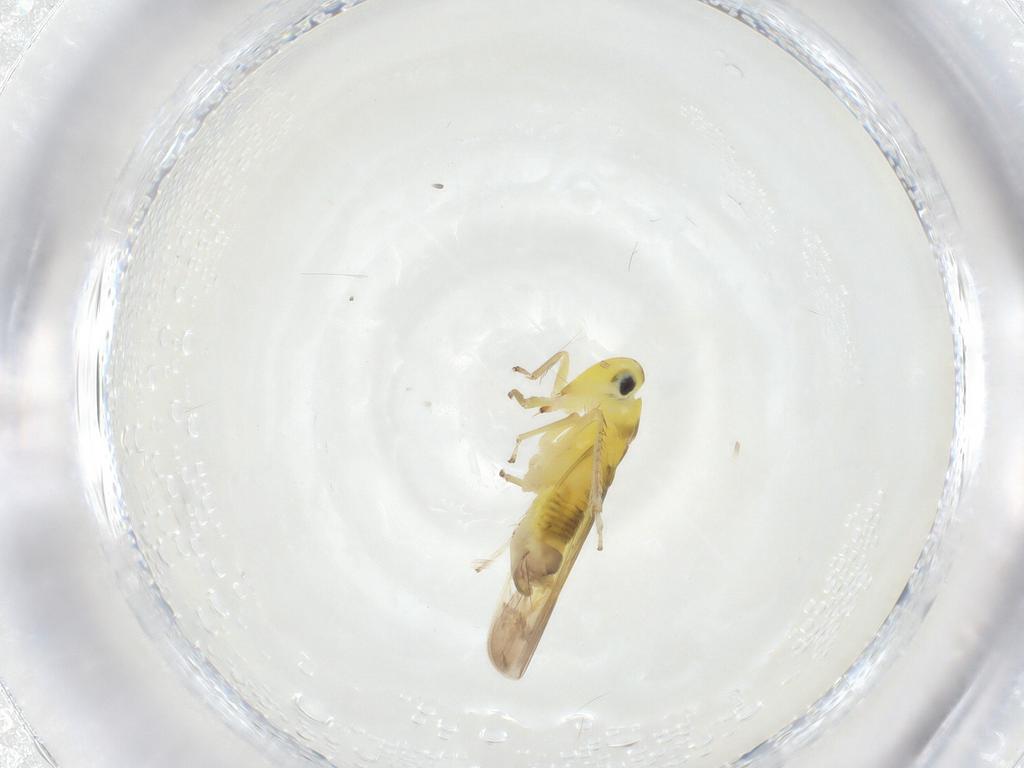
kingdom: Animalia
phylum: Arthropoda
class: Insecta
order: Hemiptera
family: Cicadellidae
